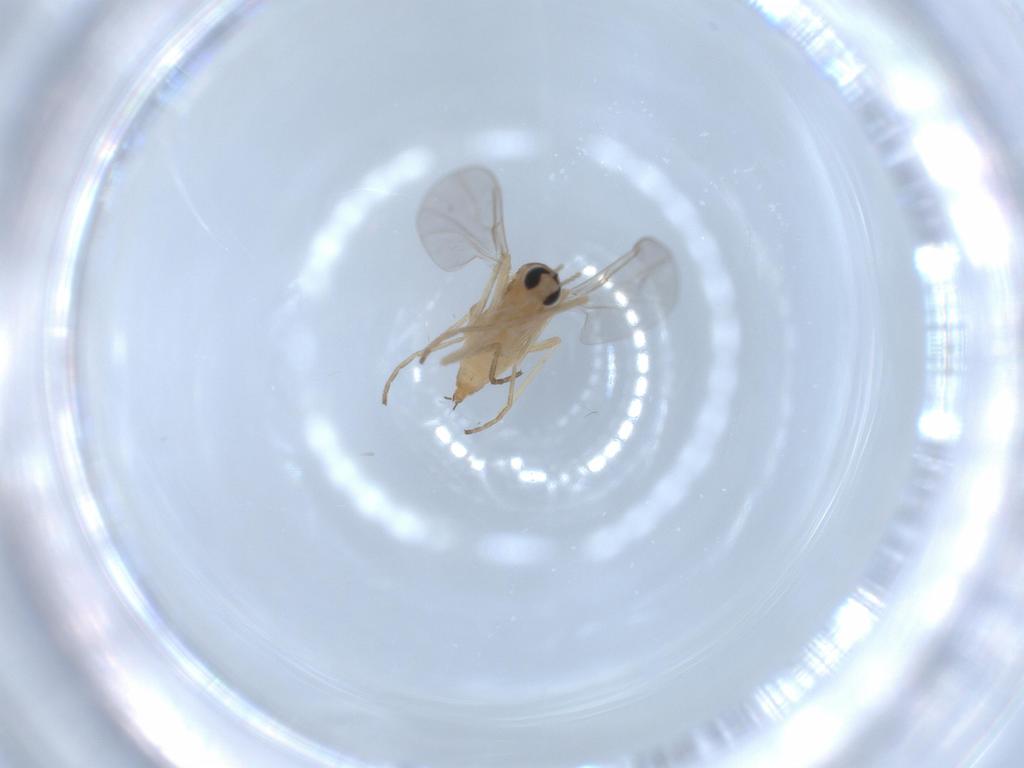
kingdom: Animalia
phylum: Arthropoda
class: Insecta
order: Diptera
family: Cecidomyiidae
